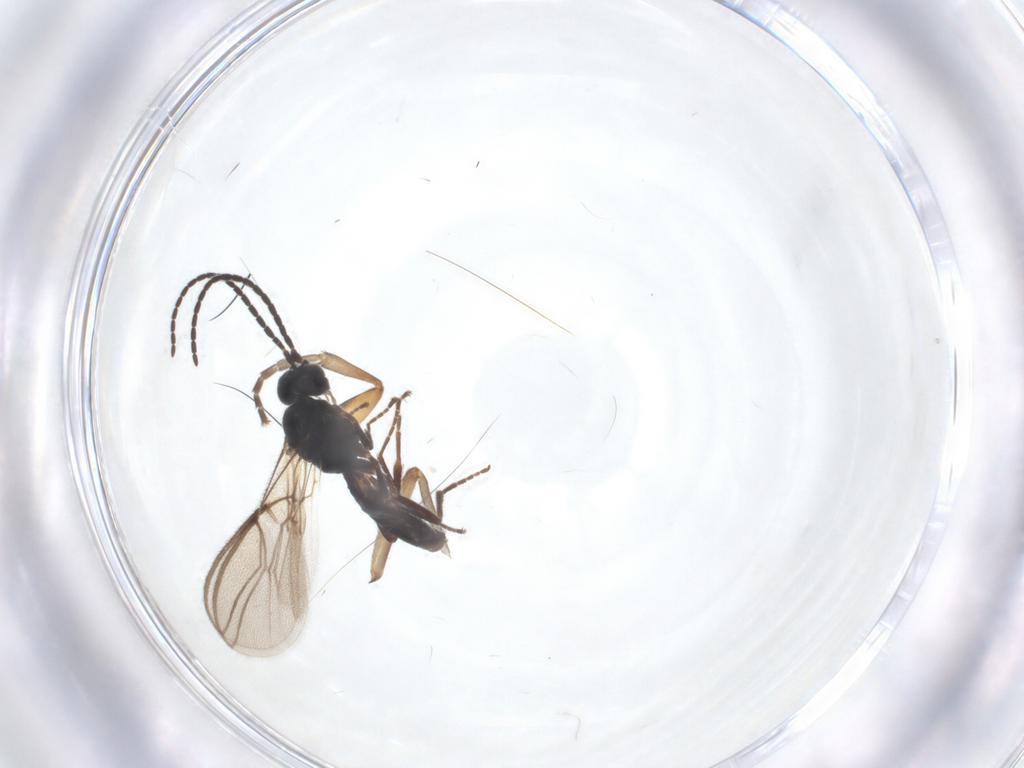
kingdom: Animalia
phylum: Arthropoda
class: Insecta
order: Hymenoptera
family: Braconidae
